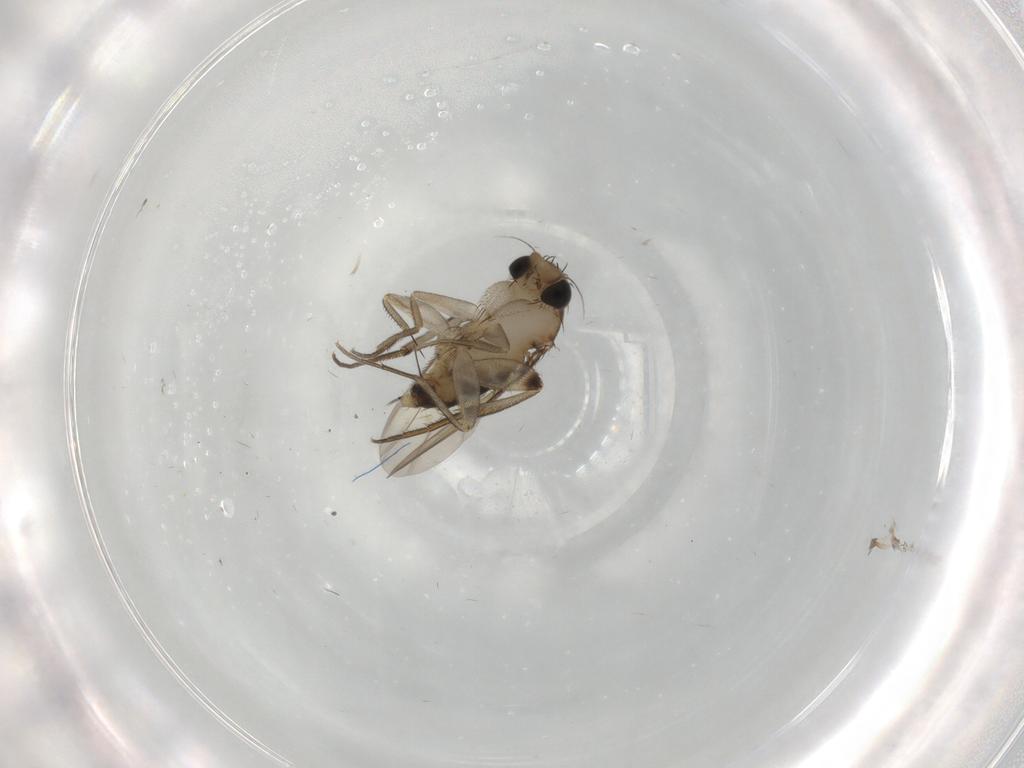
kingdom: Animalia
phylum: Arthropoda
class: Insecta
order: Diptera
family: Phoridae
